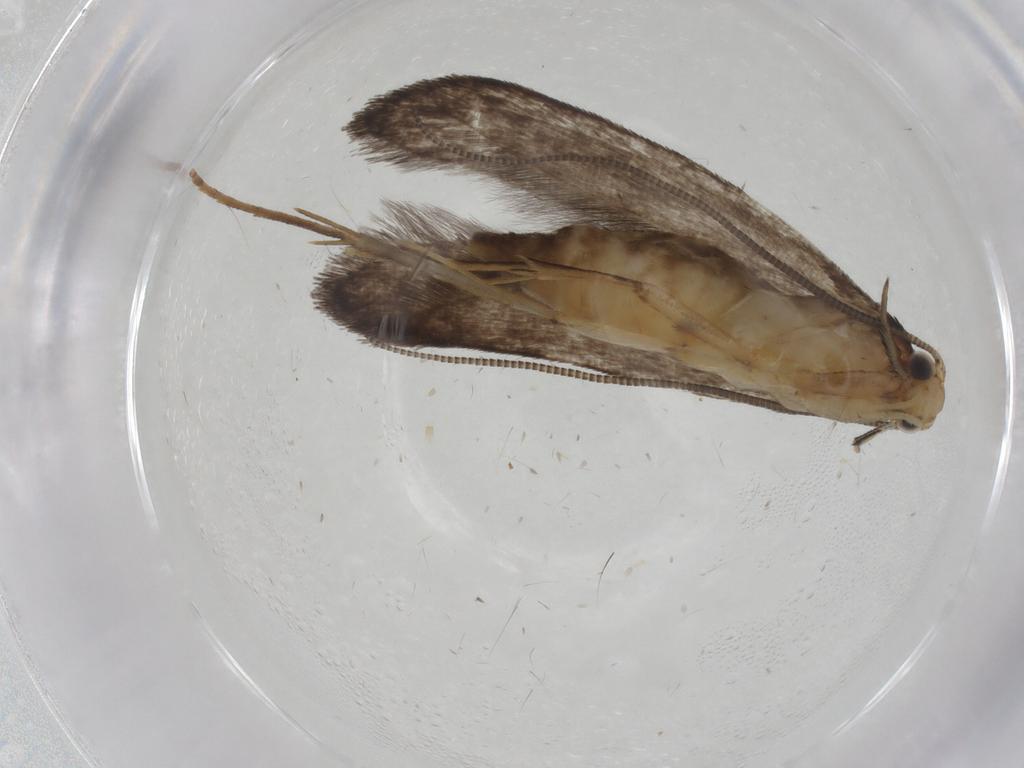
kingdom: Animalia
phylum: Arthropoda
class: Insecta
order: Lepidoptera
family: Tineidae
